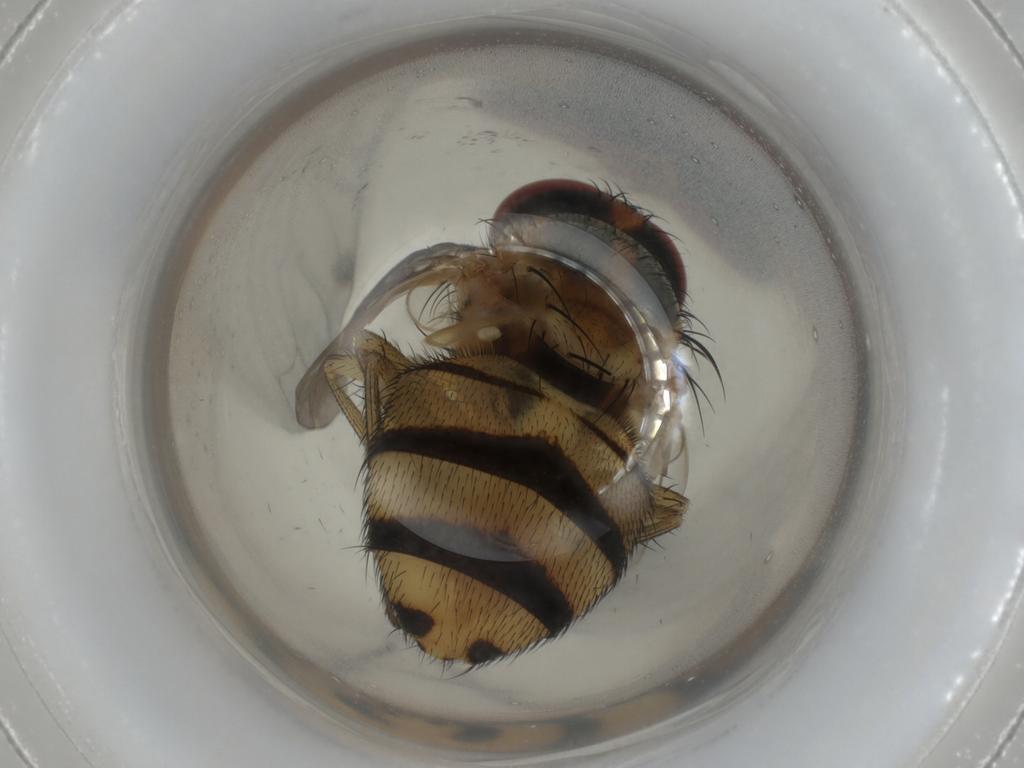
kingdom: Animalia
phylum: Arthropoda
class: Insecta
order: Diptera
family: Calliphoridae
